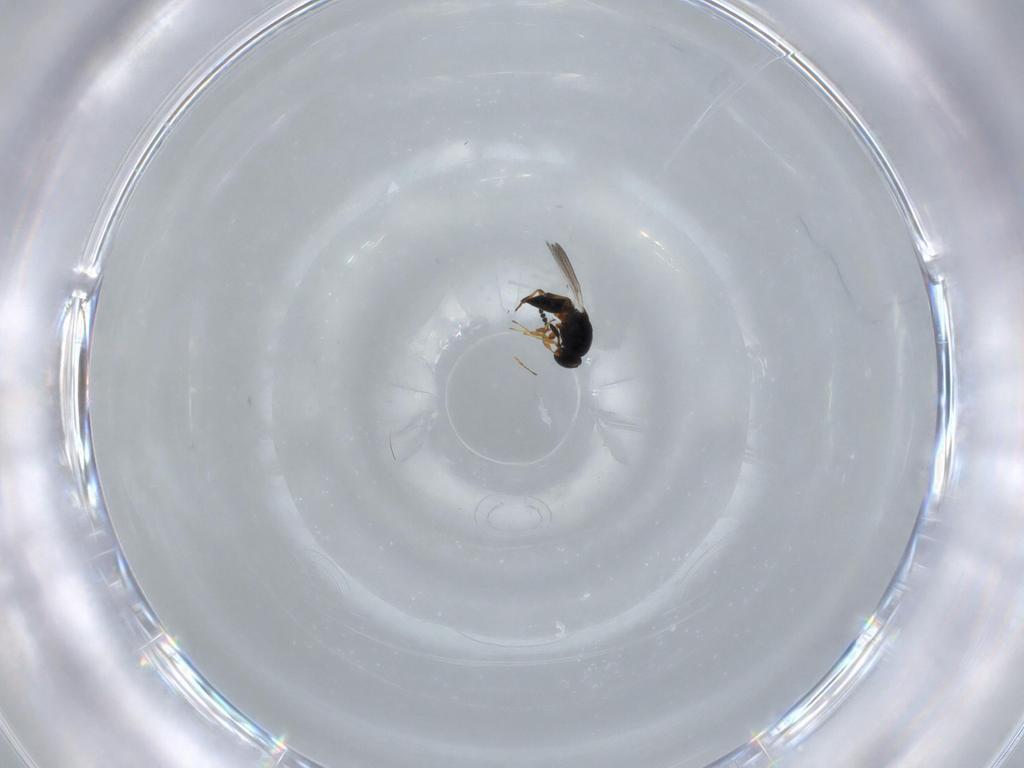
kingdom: Animalia
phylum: Arthropoda
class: Insecta
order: Hymenoptera
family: Platygastridae
